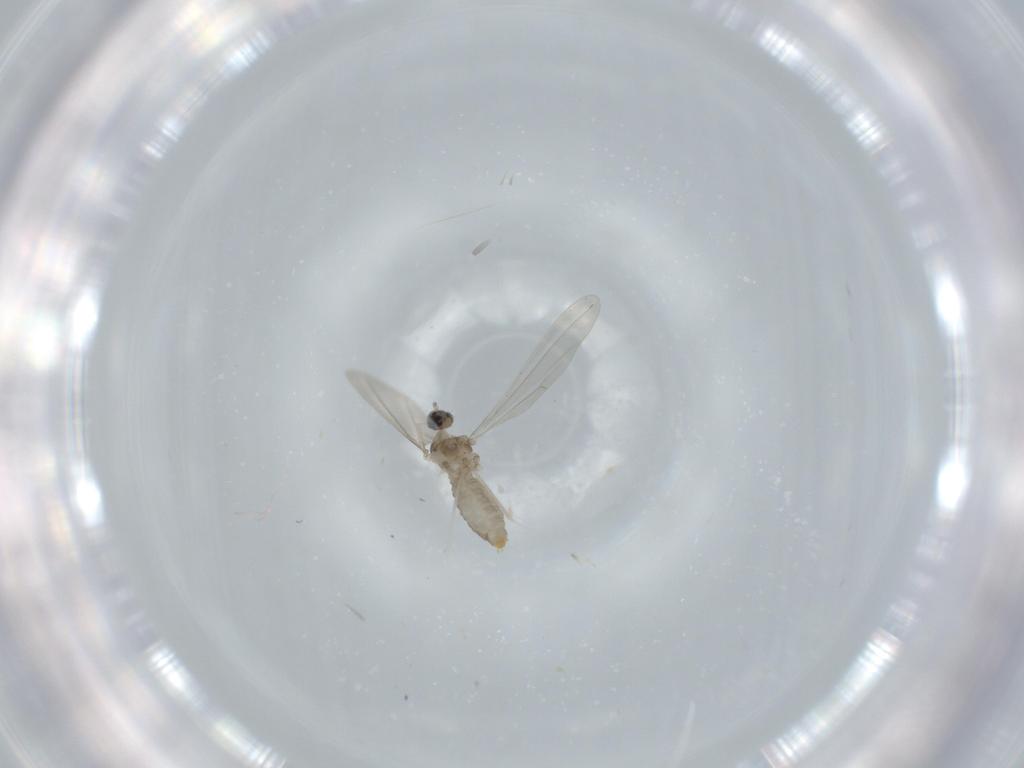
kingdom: Animalia
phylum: Arthropoda
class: Insecta
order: Diptera
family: Cecidomyiidae
